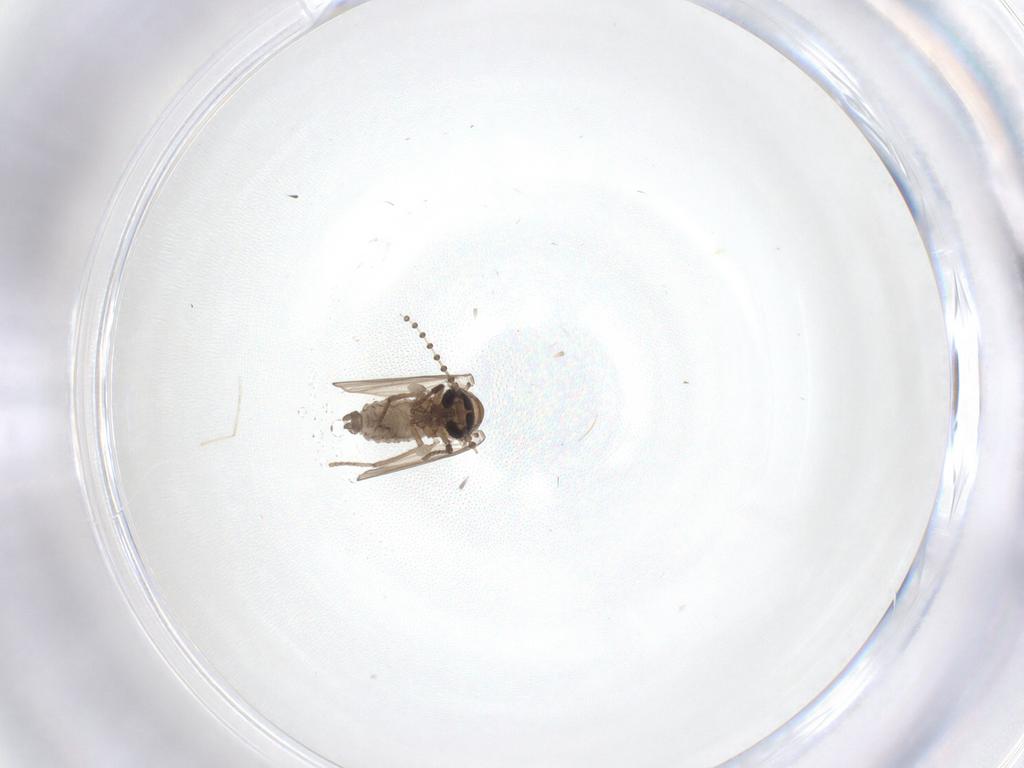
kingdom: Animalia
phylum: Arthropoda
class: Insecta
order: Diptera
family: Psychodidae
